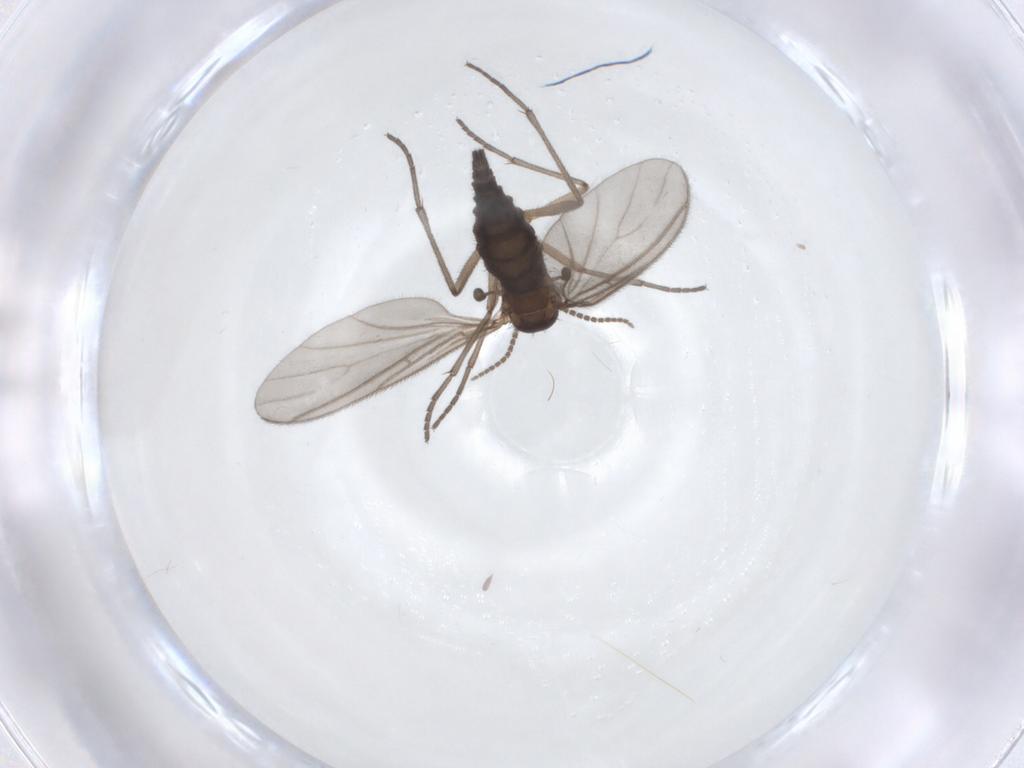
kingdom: Animalia
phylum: Arthropoda
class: Insecta
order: Diptera
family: Sciaridae
